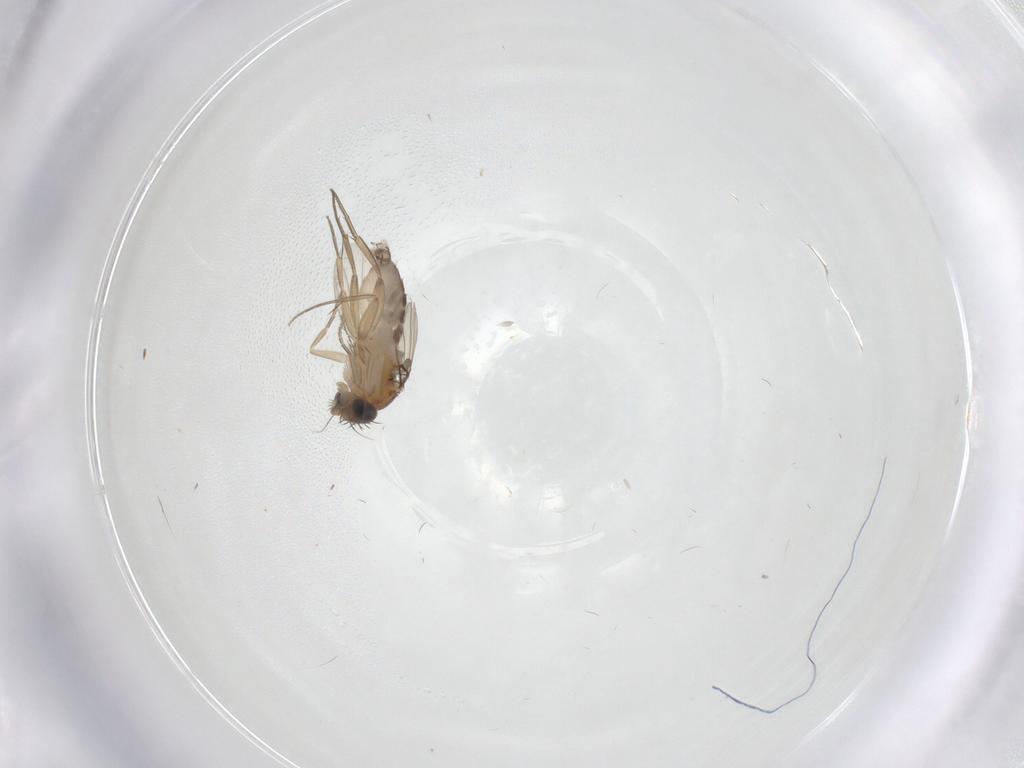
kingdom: Animalia
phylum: Arthropoda
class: Insecta
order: Diptera
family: Phoridae
